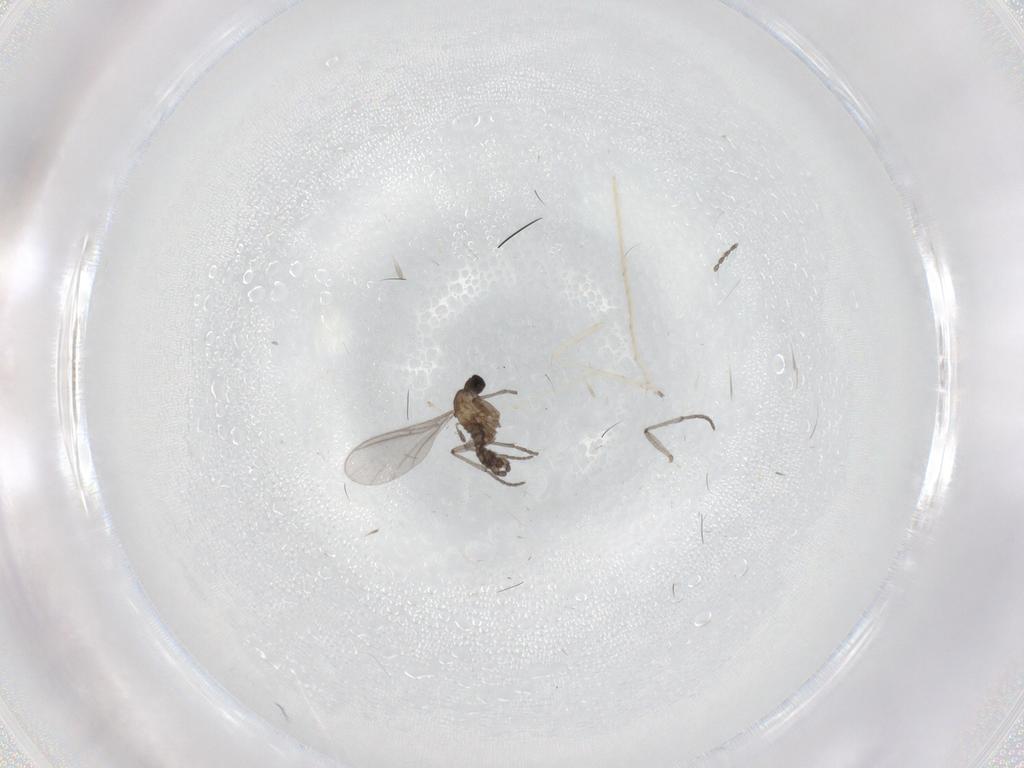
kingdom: Animalia
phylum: Arthropoda
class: Insecta
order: Diptera
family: Sciaridae
